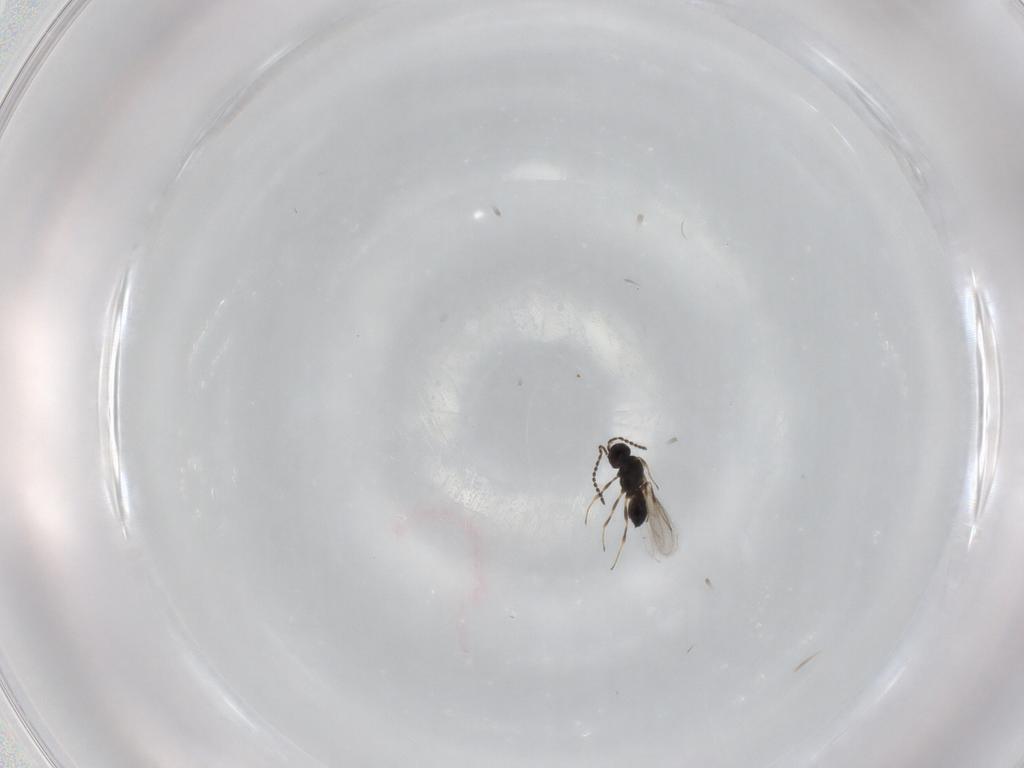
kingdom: Animalia
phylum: Arthropoda
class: Insecta
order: Hymenoptera
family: Scelionidae
